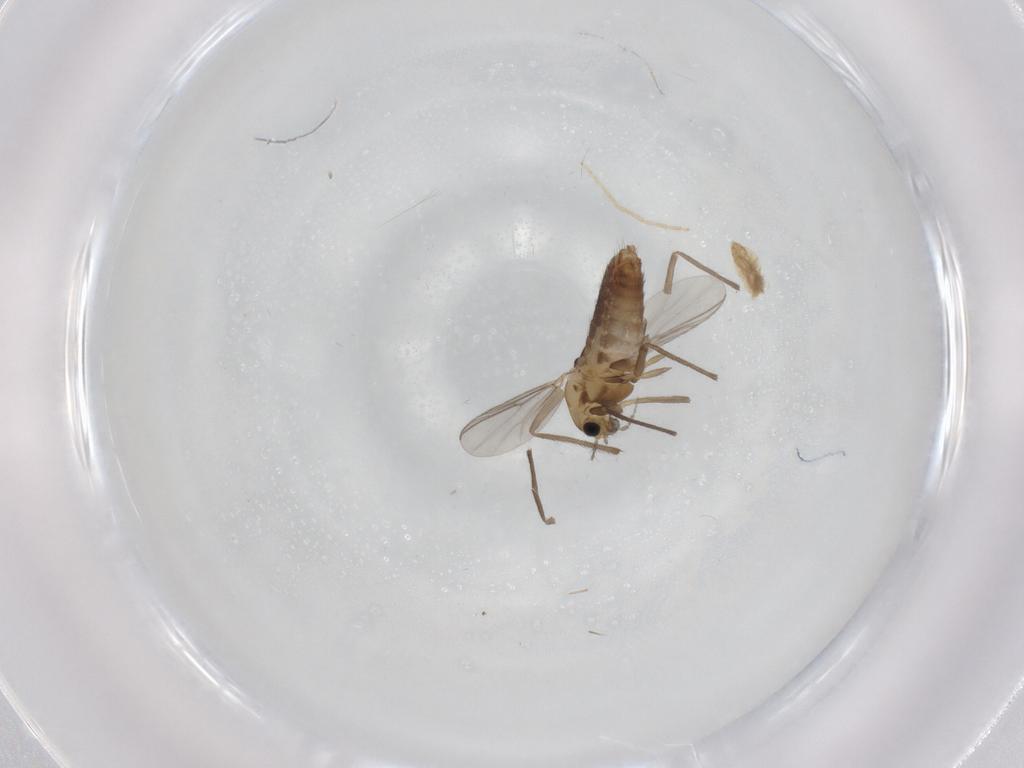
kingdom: Animalia
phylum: Arthropoda
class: Insecta
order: Diptera
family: Chironomidae
